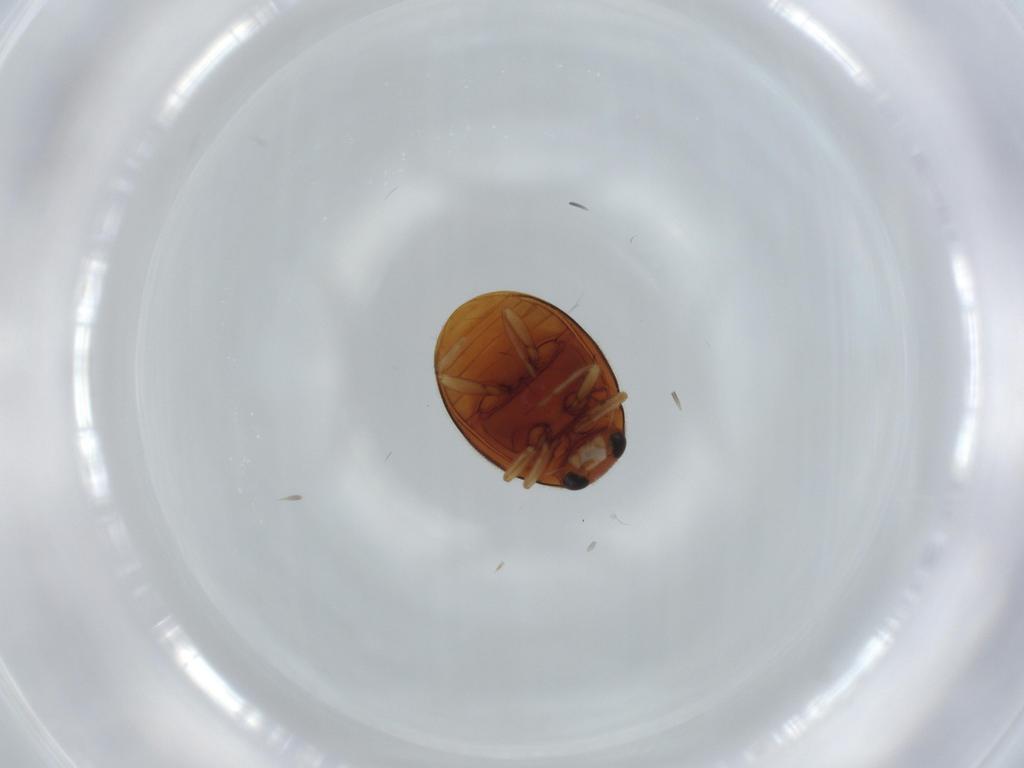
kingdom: Animalia
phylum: Arthropoda
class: Insecta
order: Coleoptera
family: Coccinellidae
